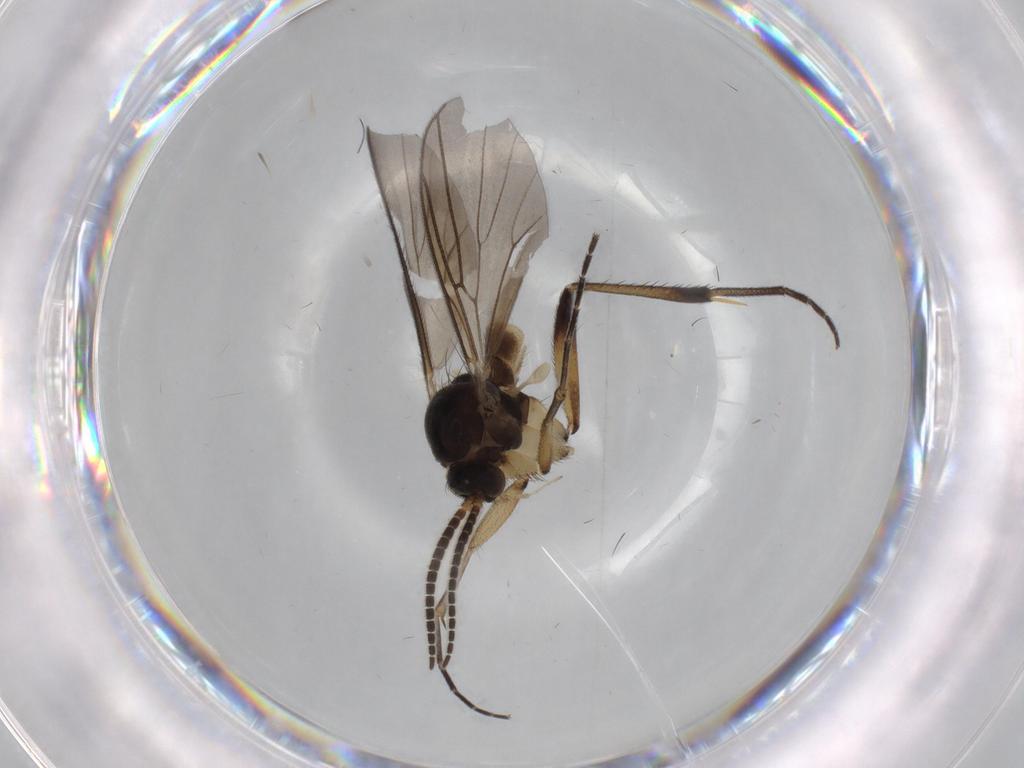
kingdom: Animalia
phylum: Arthropoda
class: Insecta
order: Diptera
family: Mycetophilidae
